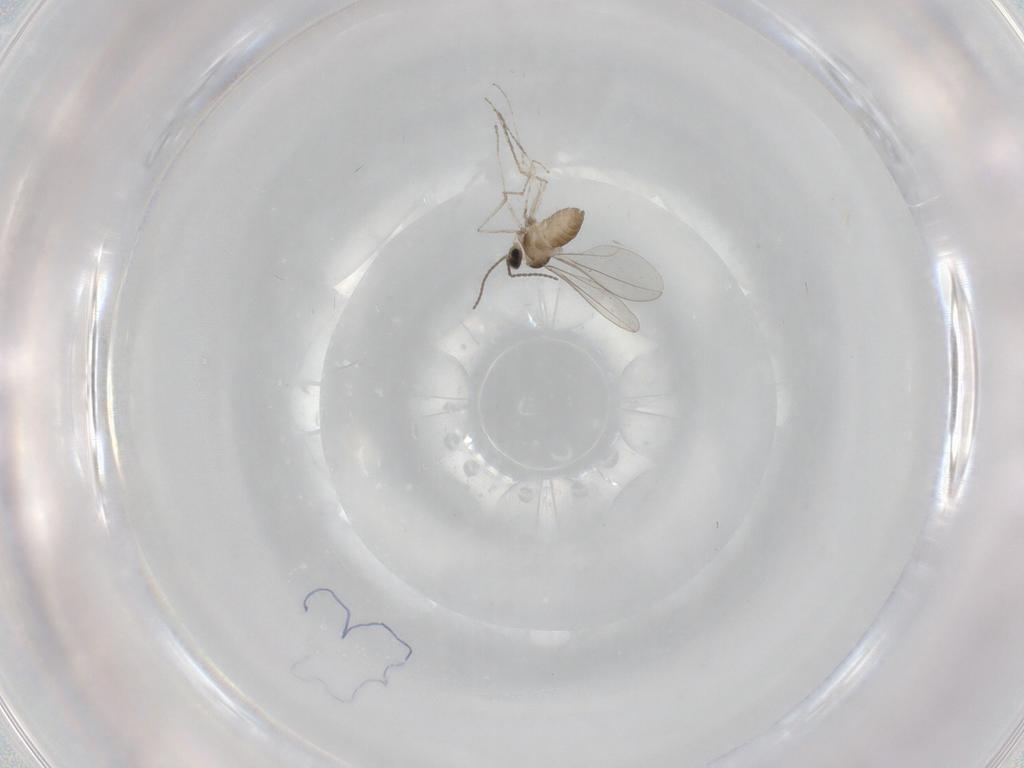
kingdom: Animalia
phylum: Arthropoda
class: Insecta
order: Diptera
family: Cecidomyiidae
